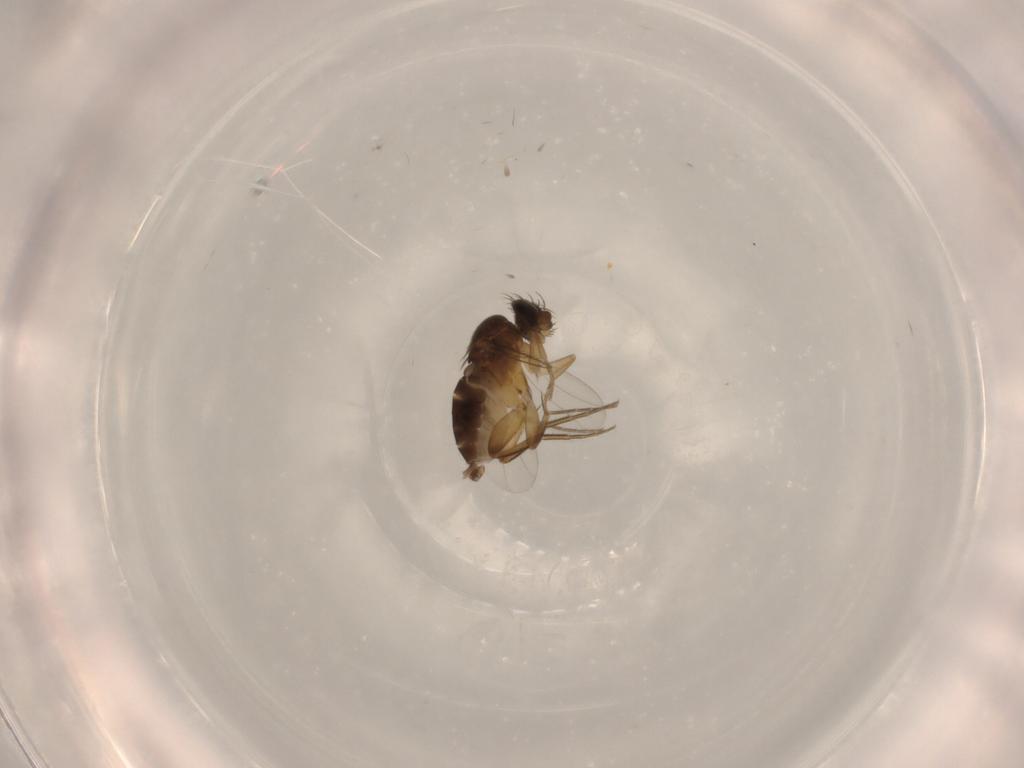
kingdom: Animalia
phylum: Arthropoda
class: Insecta
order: Diptera
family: Phoridae
